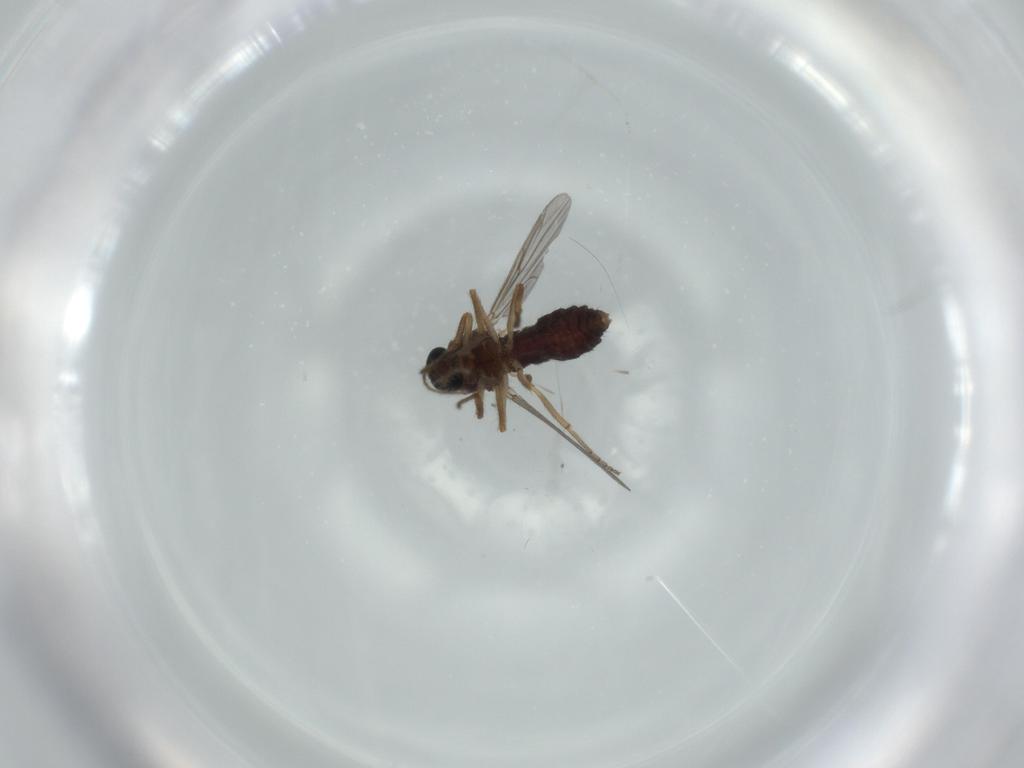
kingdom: Animalia
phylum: Arthropoda
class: Insecta
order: Diptera
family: Ceratopogonidae
